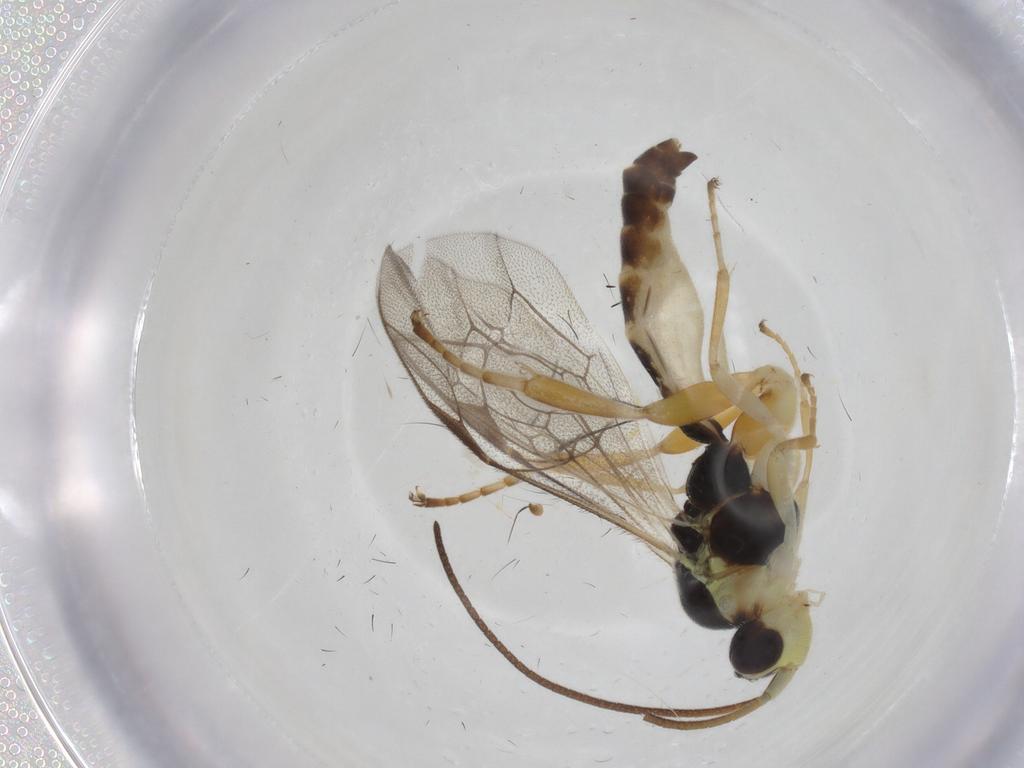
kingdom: Animalia
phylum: Arthropoda
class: Insecta
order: Hymenoptera
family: Ichneumonidae
